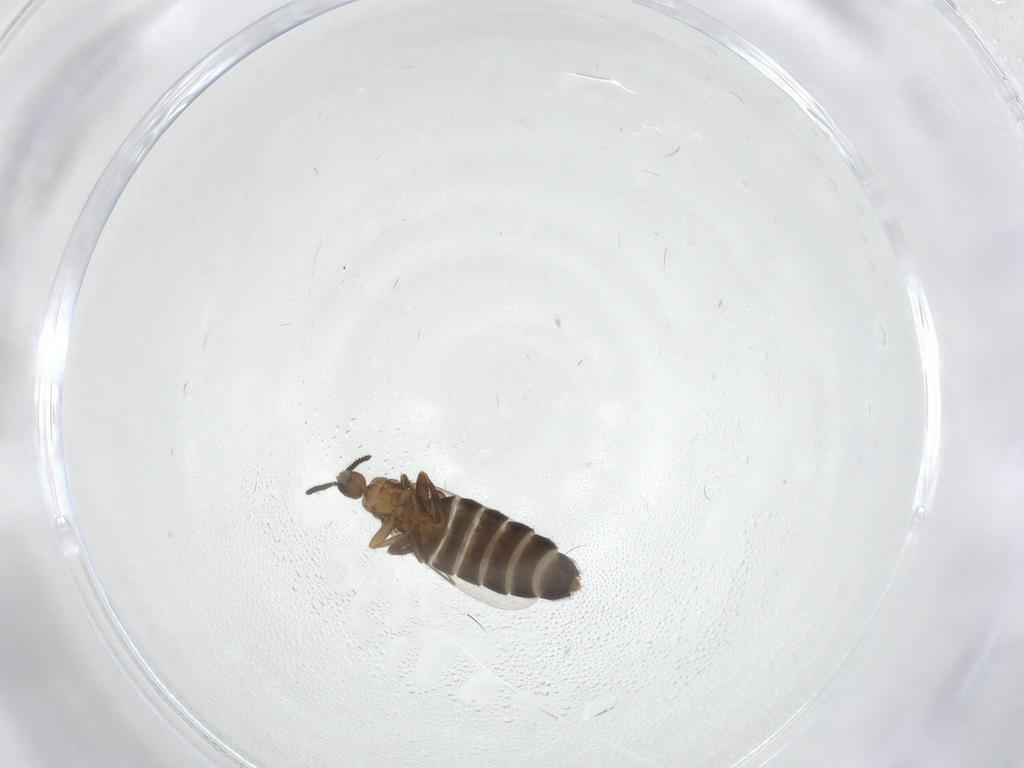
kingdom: Animalia
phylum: Arthropoda
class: Insecta
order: Diptera
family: Scatopsidae
